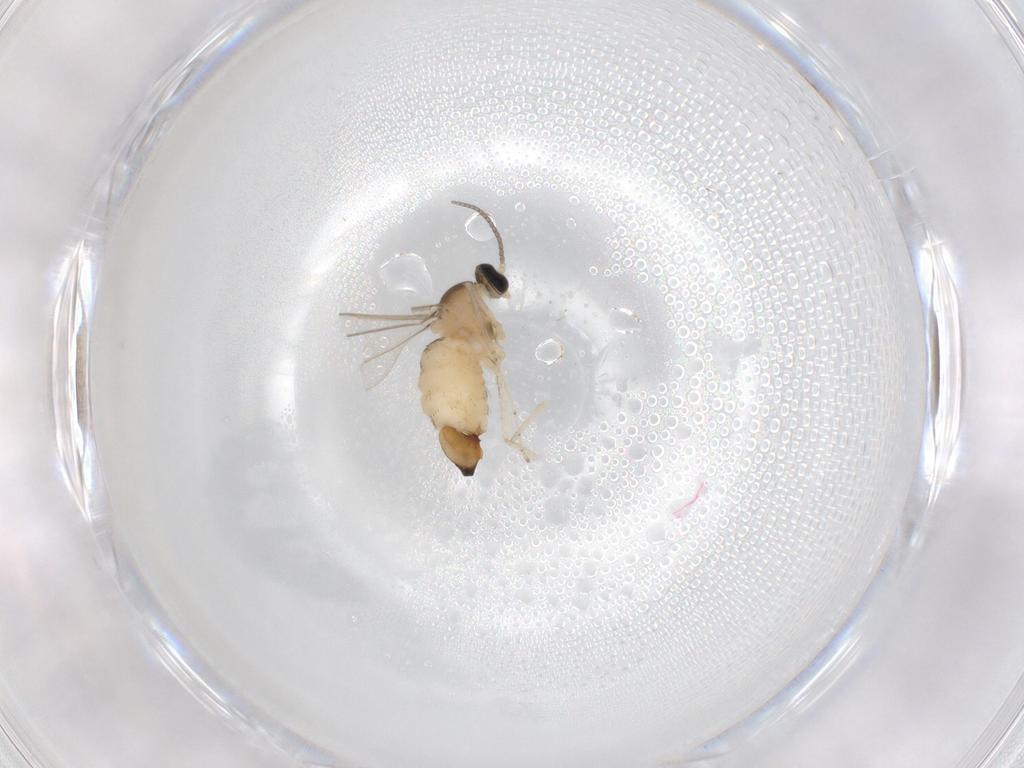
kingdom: Animalia
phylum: Arthropoda
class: Insecta
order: Diptera
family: Cecidomyiidae
